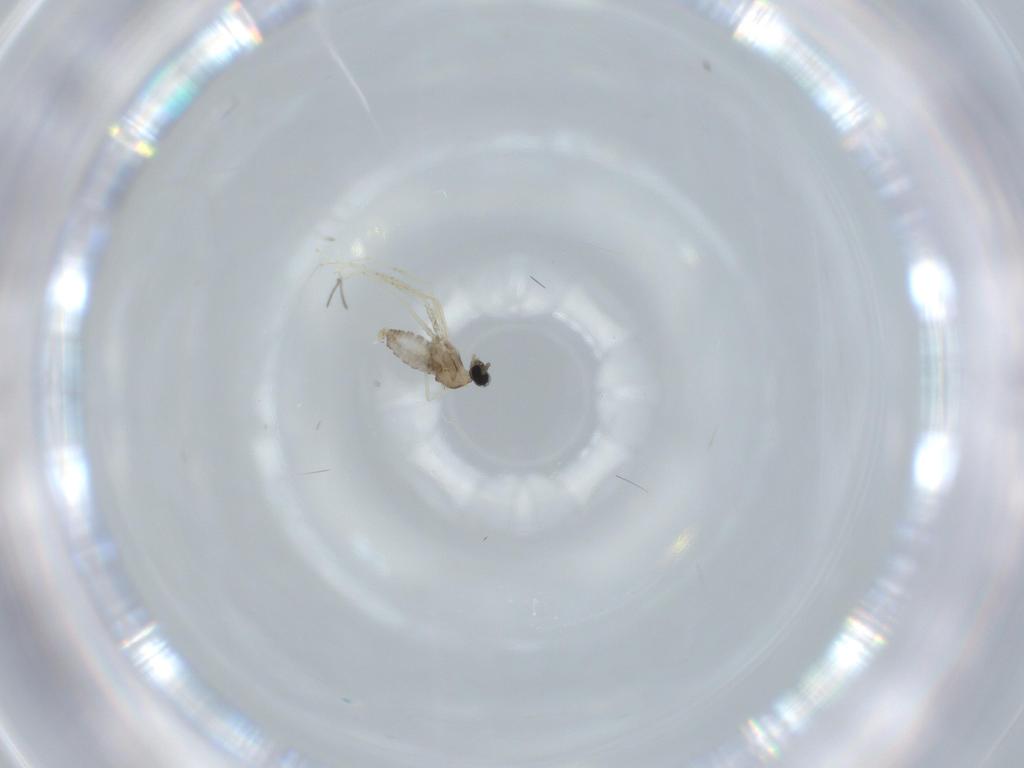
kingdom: Animalia
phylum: Arthropoda
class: Insecta
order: Diptera
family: Cecidomyiidae
